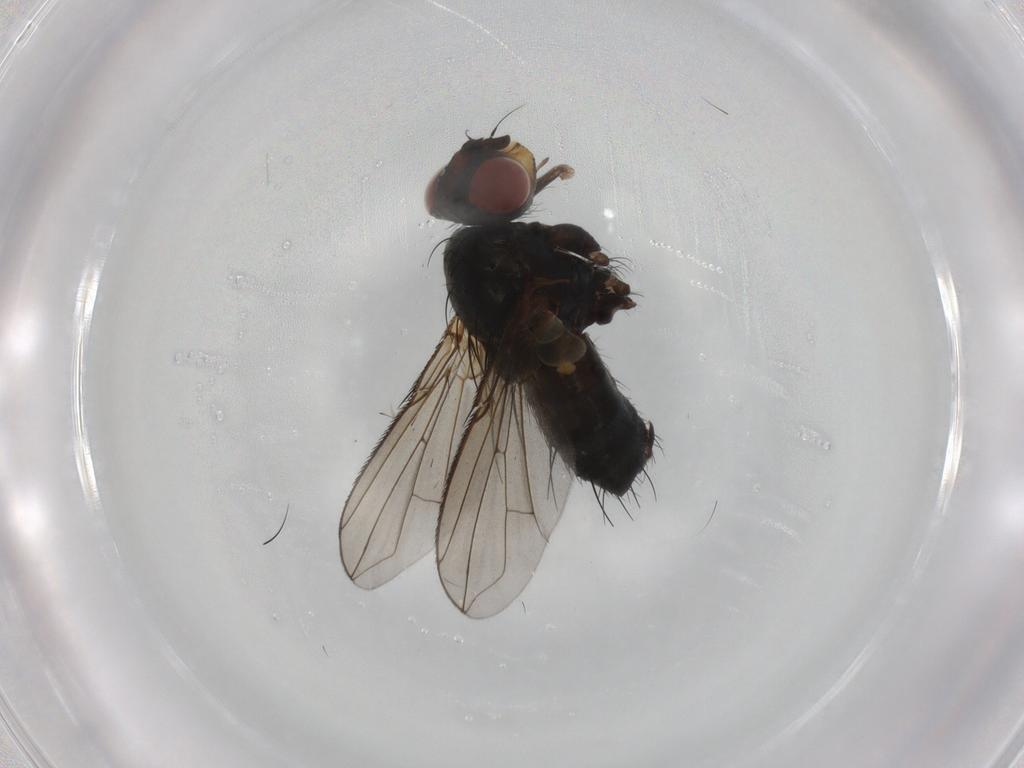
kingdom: Animalia
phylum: Arthropoda
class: Insecta
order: Diptera
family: Calliphoridae
